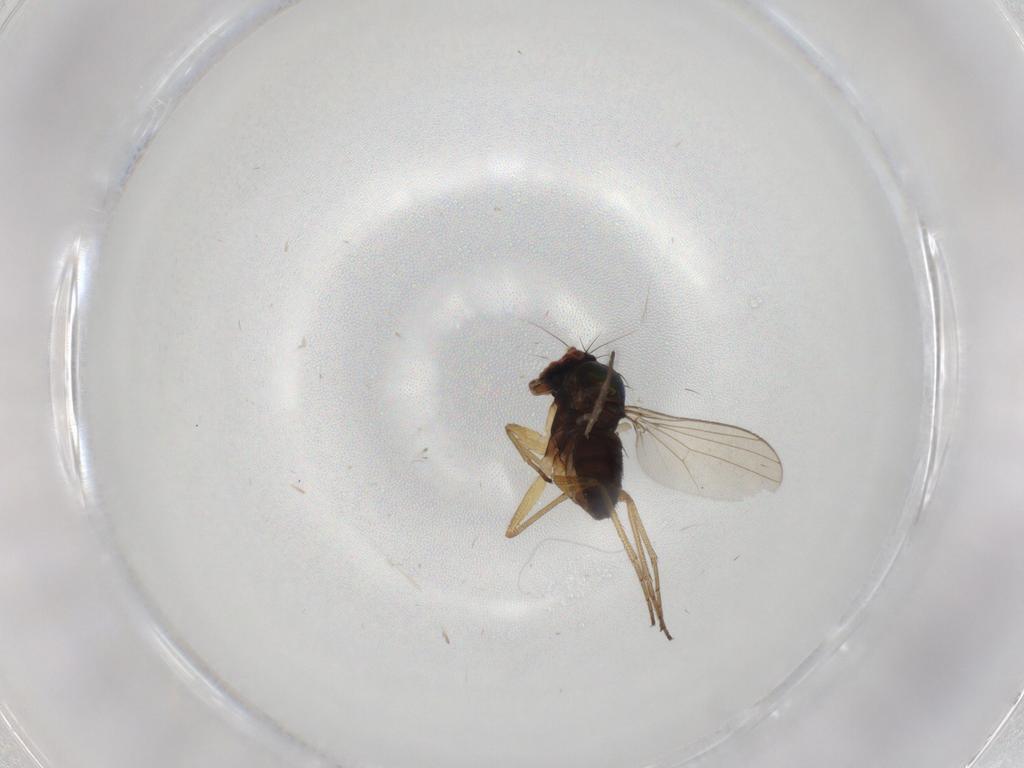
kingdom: Animalia
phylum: Arthropoda
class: Insecta
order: Diptera
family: Dolichopodidae
